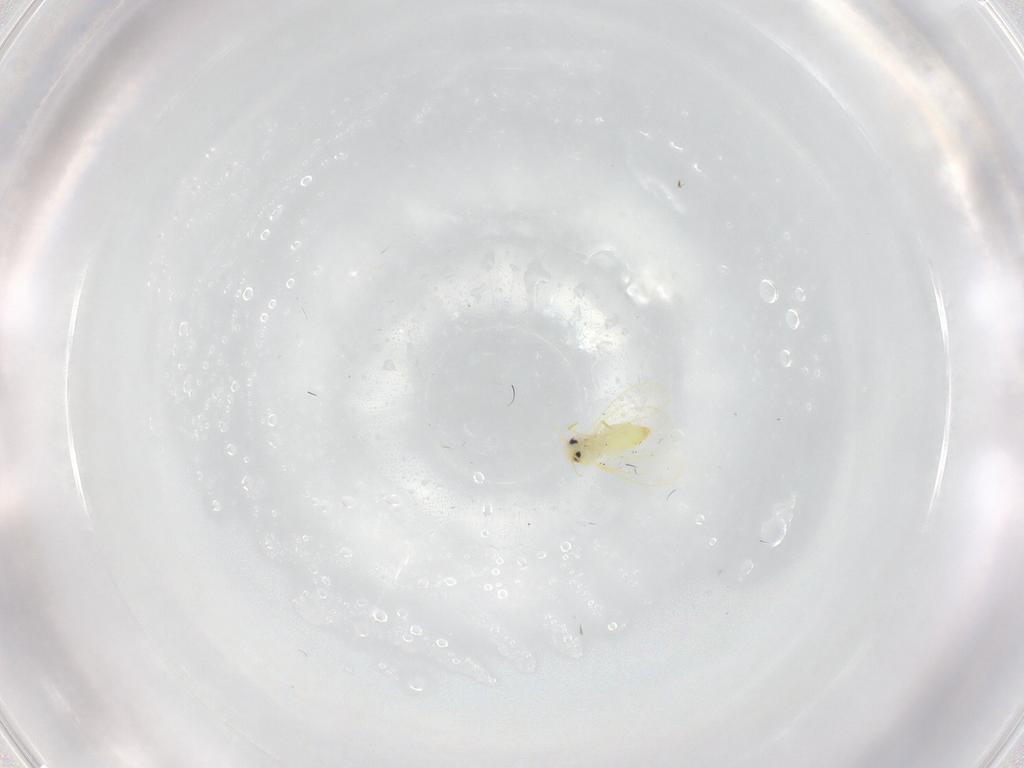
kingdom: Animalia
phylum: Arthropoda
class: Insecta
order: Hemiptera
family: Aleyrodidae
